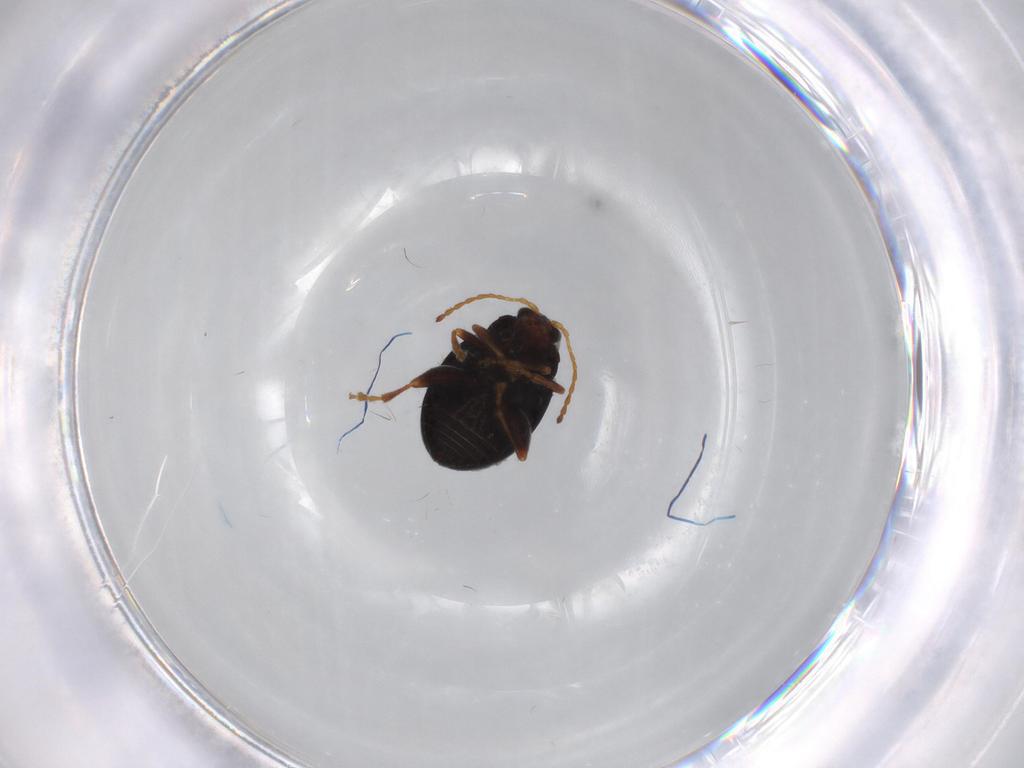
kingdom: Animalia
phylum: Arthropoda
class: Insecta
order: Coleoptera
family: Chrysomelidae
